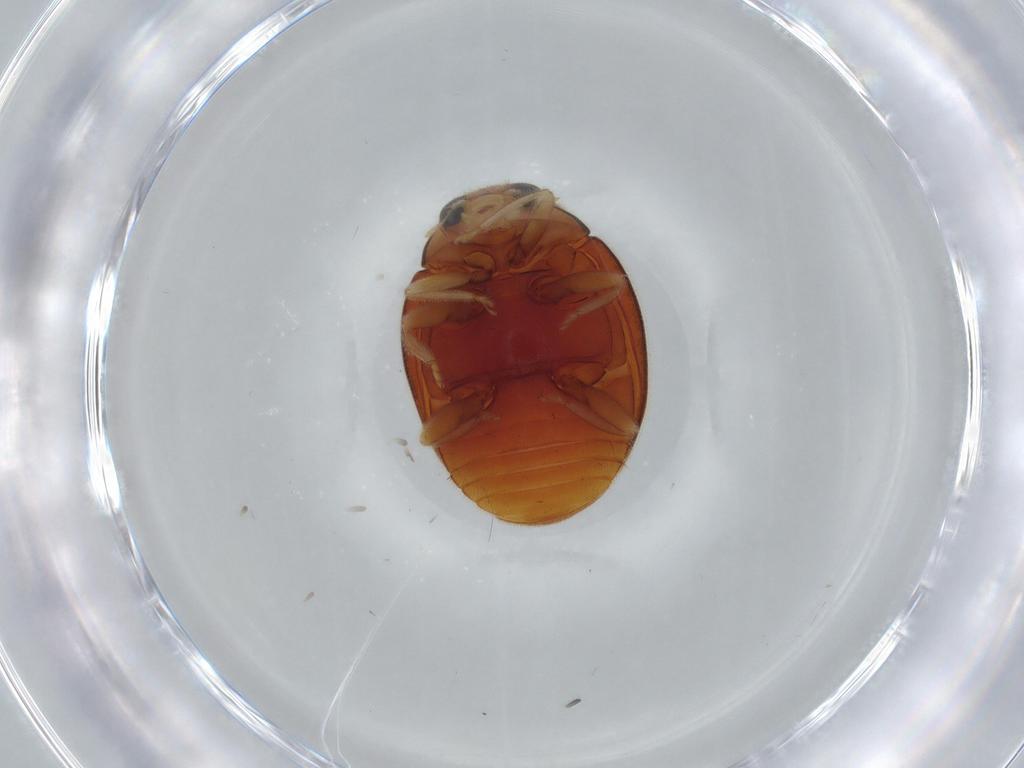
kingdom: Animalia
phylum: Arthropoda
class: Insecta
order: Coleoptera
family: Coccinellidae
